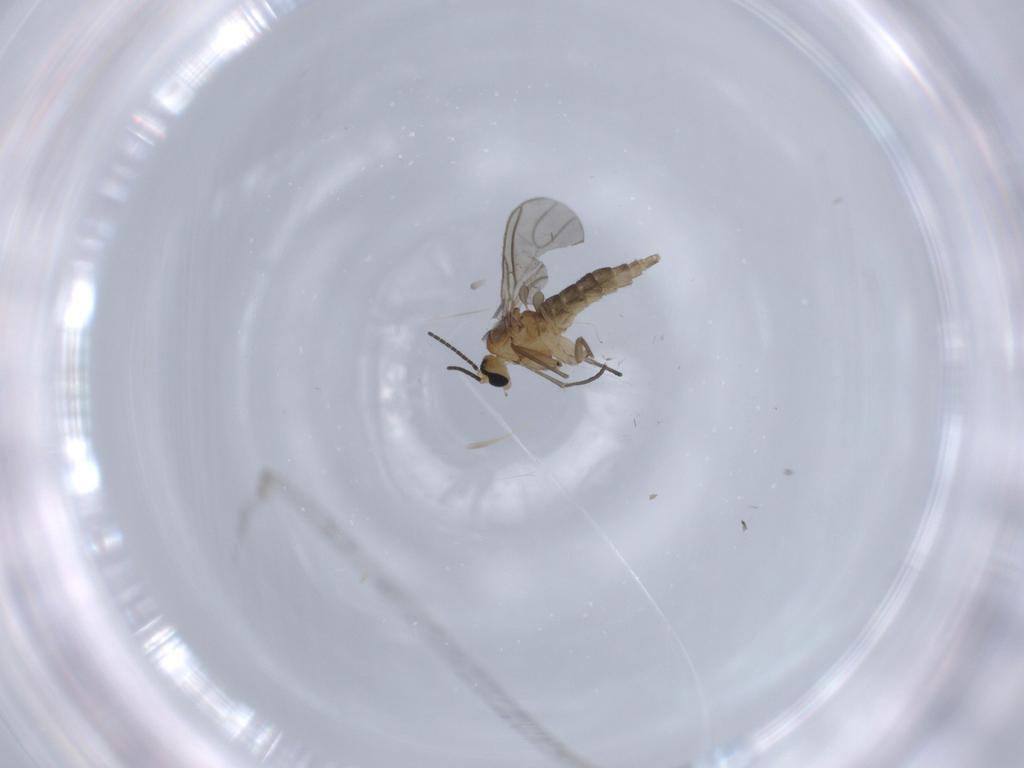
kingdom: Animalia
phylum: Arthropoda
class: Insecta
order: Diptera
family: Sciaridae
